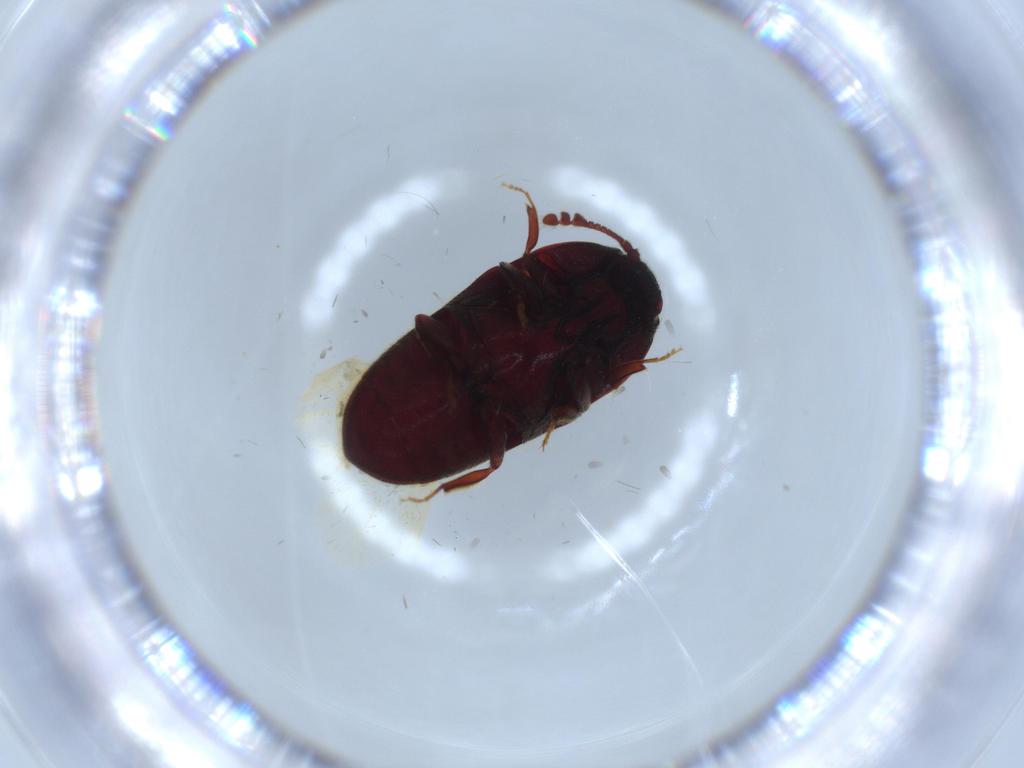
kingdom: Animalia
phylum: Arthropoda
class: Insecta
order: Coleoptera
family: Throscidae
